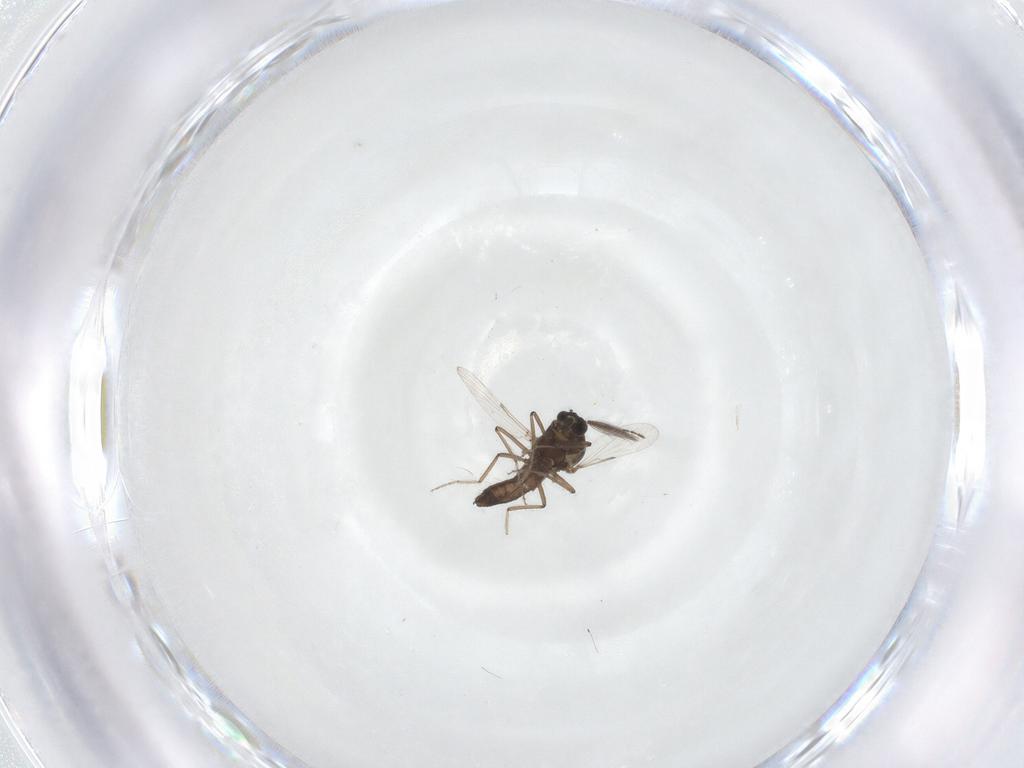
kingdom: Animalia
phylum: Arthropoda
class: Insecta
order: Diptera
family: Ceratopogonidae
